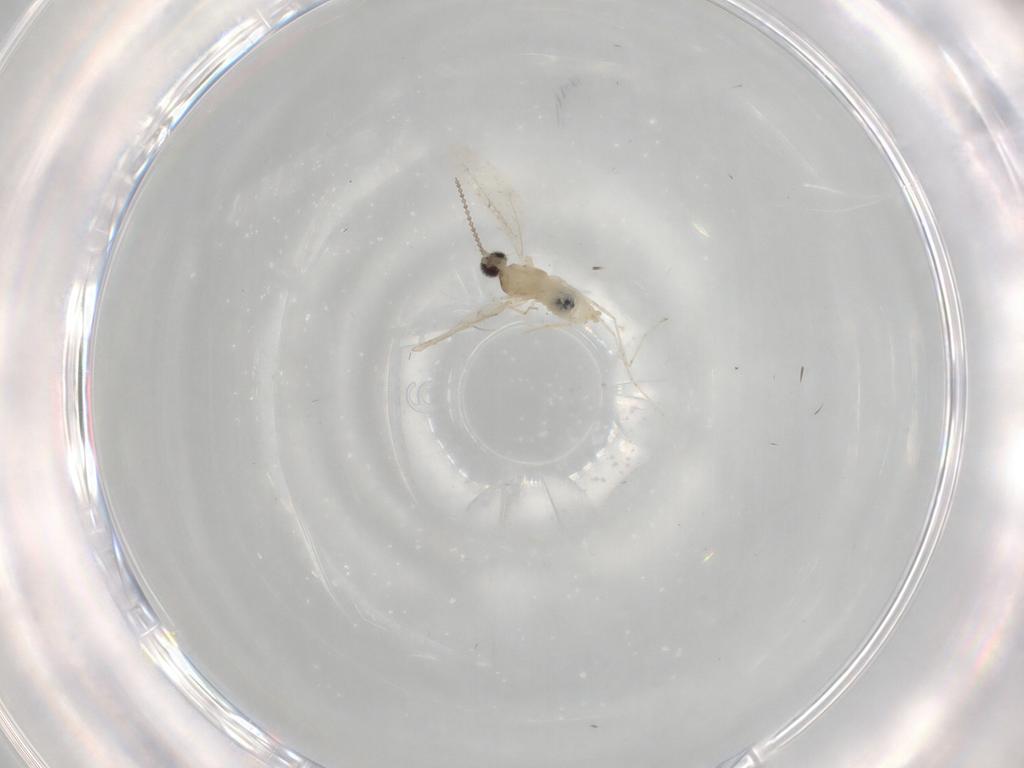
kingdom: Animalia
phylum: Arthropoda
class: Insecta
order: Diptera
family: Cecidomyiidae
